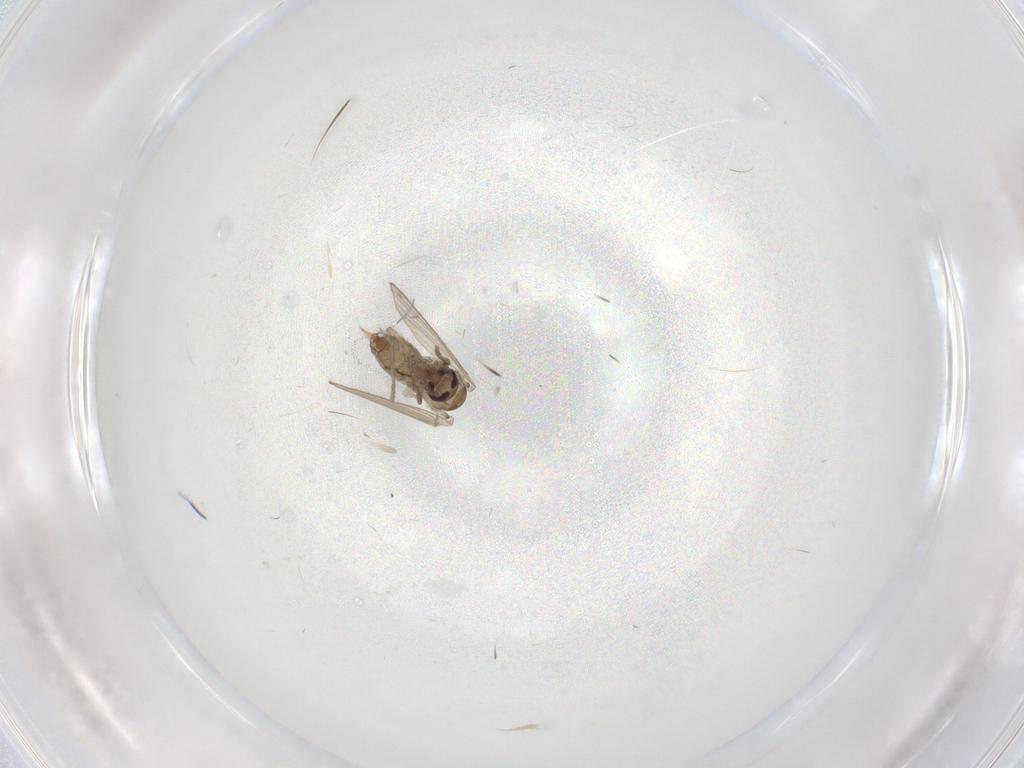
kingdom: Animalia
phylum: Arthropoda
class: Insecta
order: Diptera
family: Psychodidae
